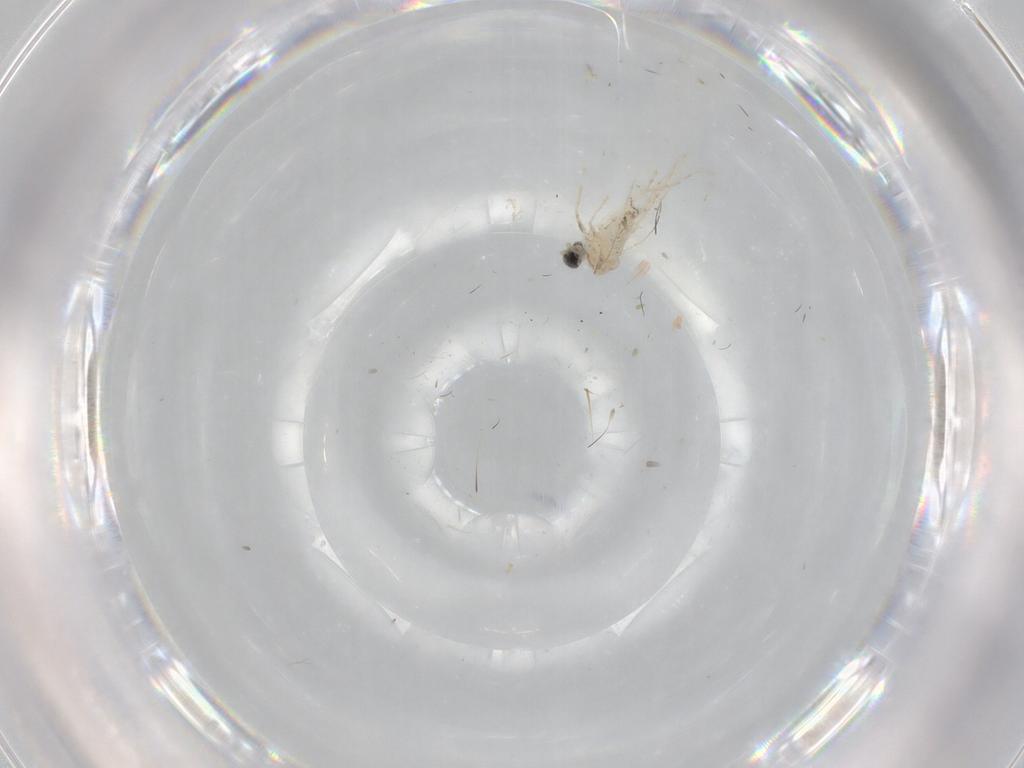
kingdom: Animalia
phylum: Arthropoda
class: Insecta
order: Diptera
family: Cecidomyiidae
